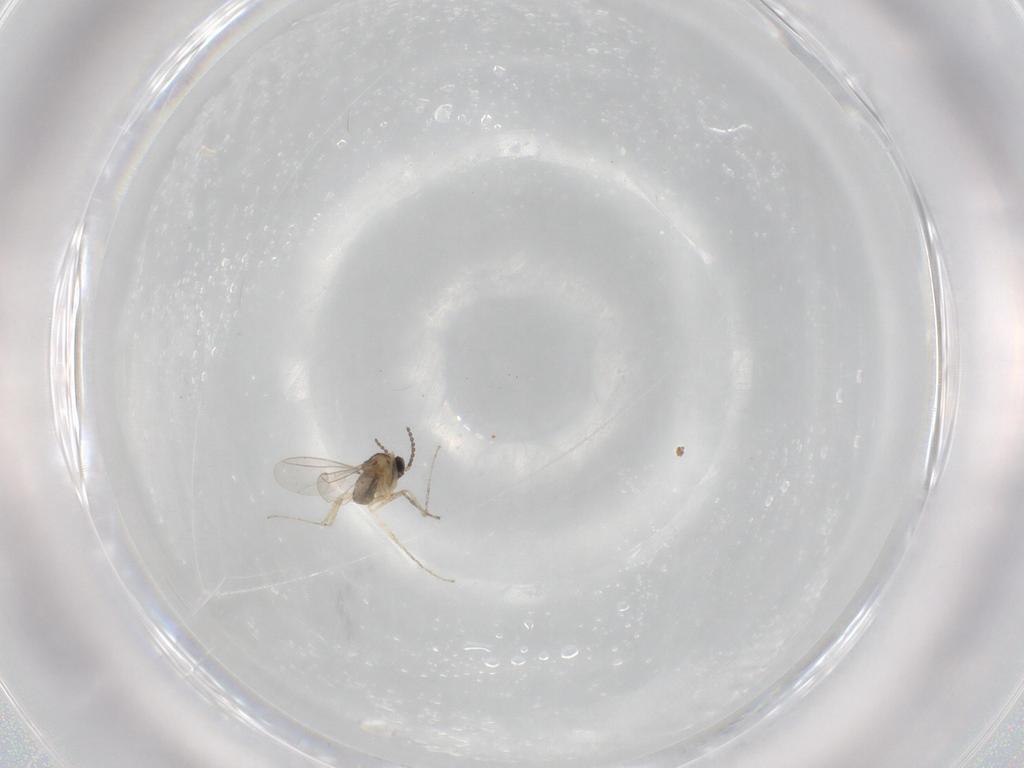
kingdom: Animalia
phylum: Arthropoda
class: Insecta
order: Diptera
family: Cecidomyiidae
